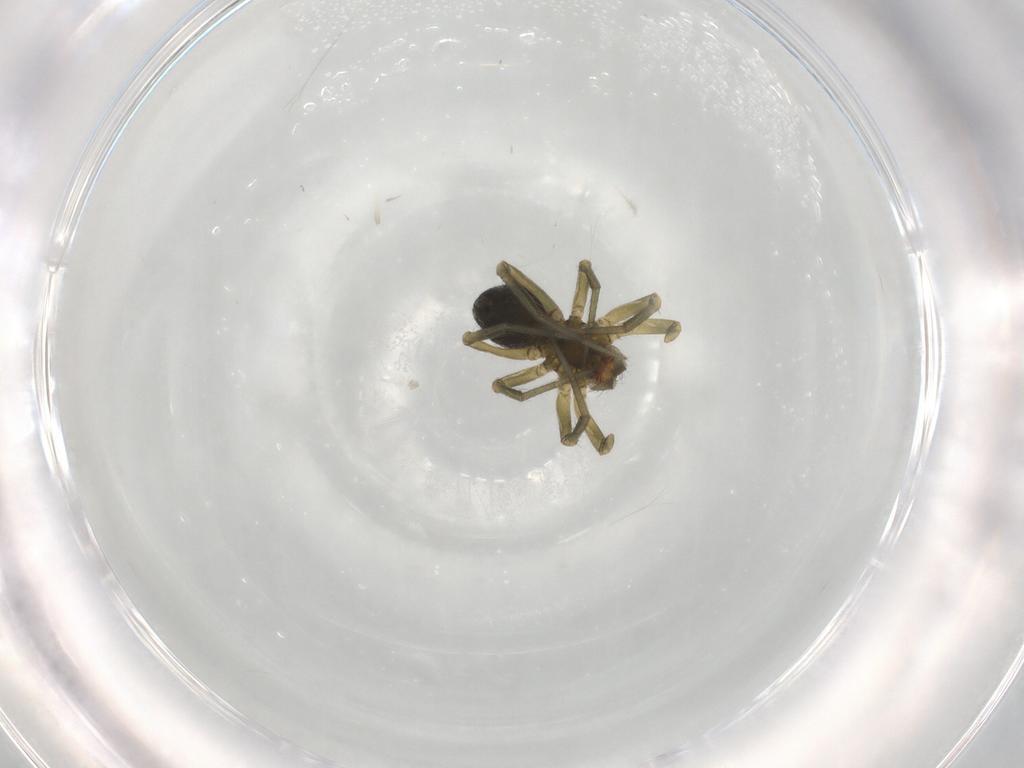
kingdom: Animalia
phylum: Arthropoda
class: Arachnida
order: Araneae
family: Linyphiidae
